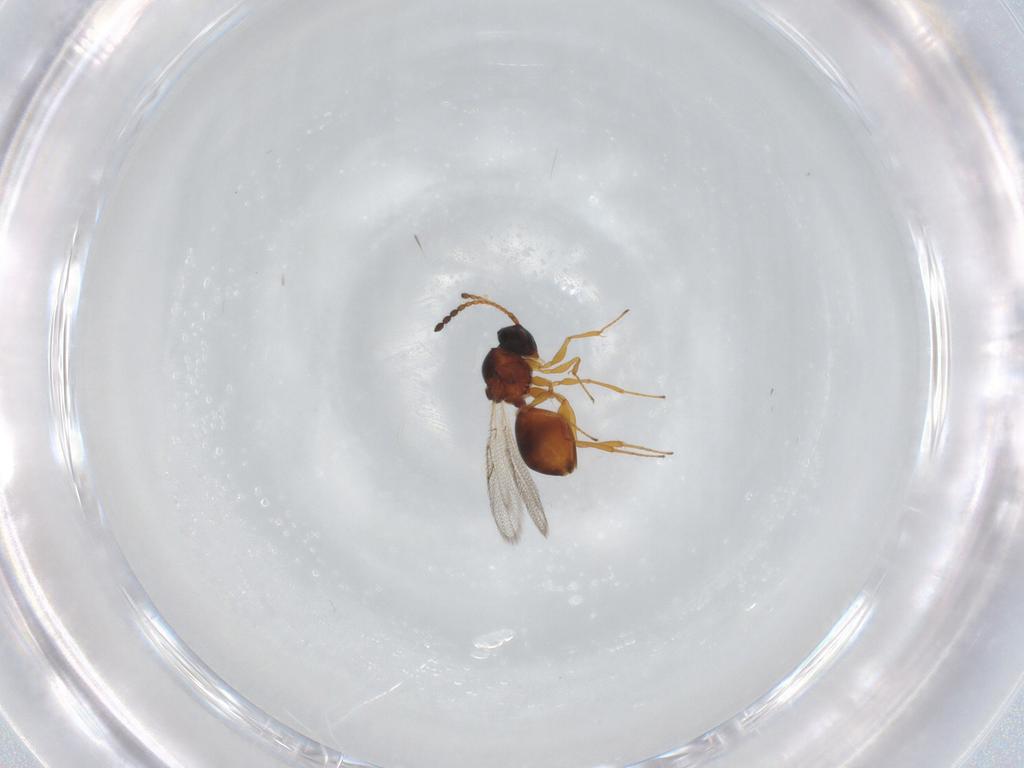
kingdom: Animalia
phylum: Arthropoda
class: Insecta
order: Hymenoptera
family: Figitidae
